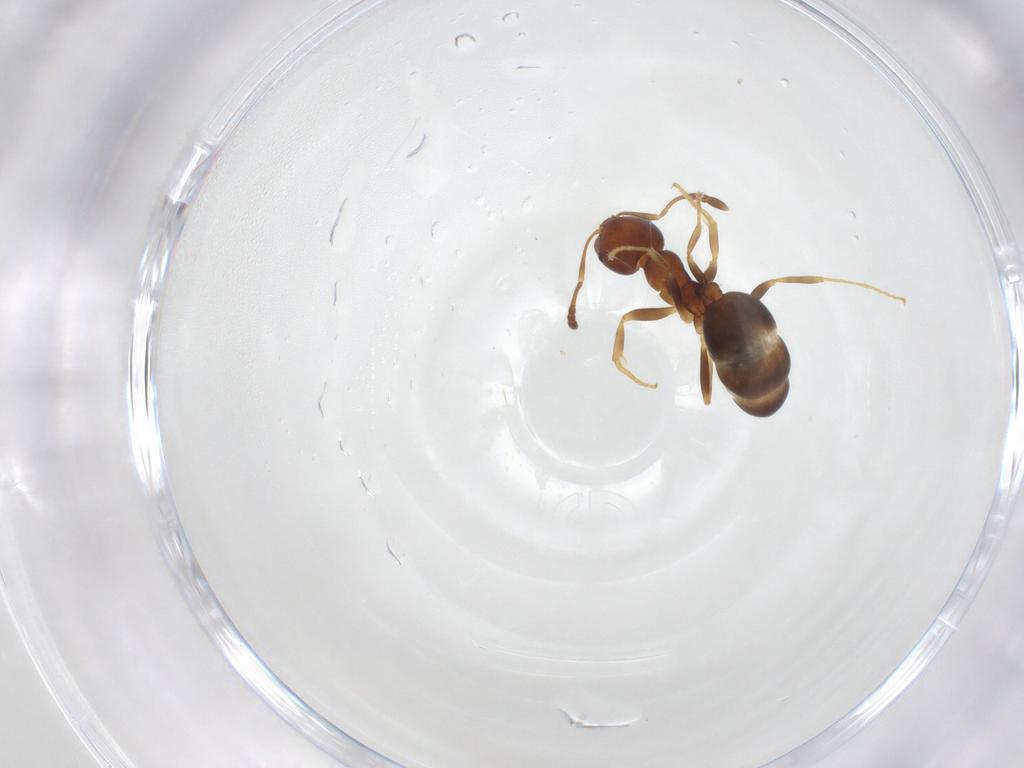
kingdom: Animalia
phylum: Arthropoda
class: Insecta
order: Hymenoptera
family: Formicidae
